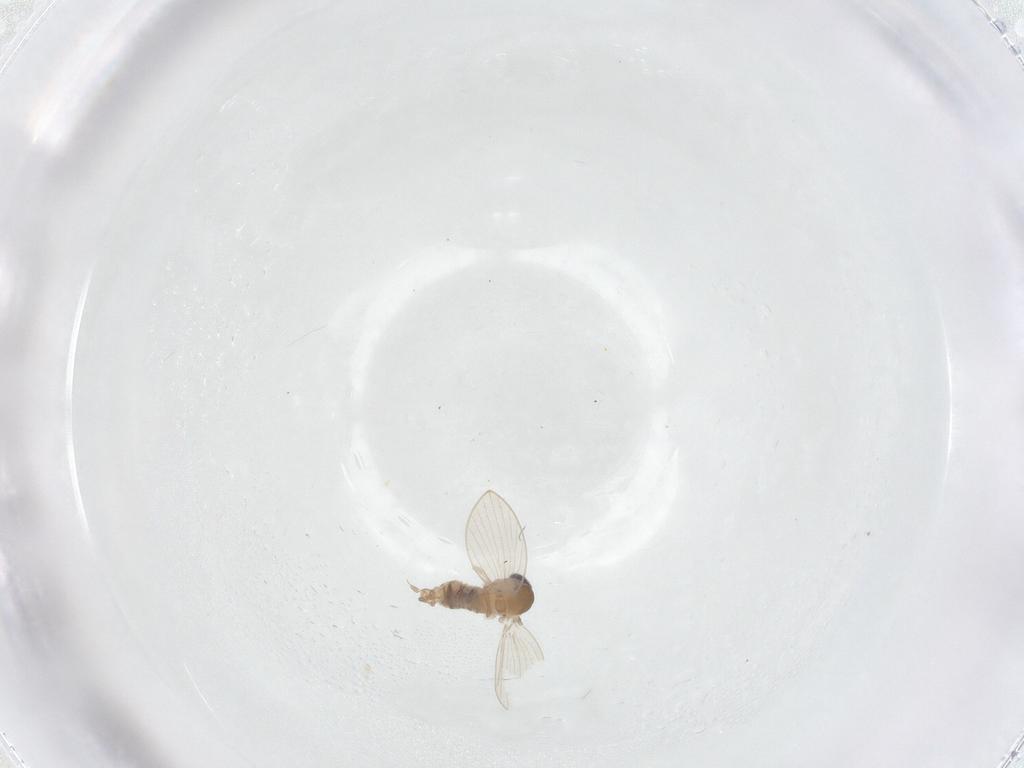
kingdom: Animalia
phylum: Arthropoda
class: Insecta
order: Diptera
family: Psychodidae
